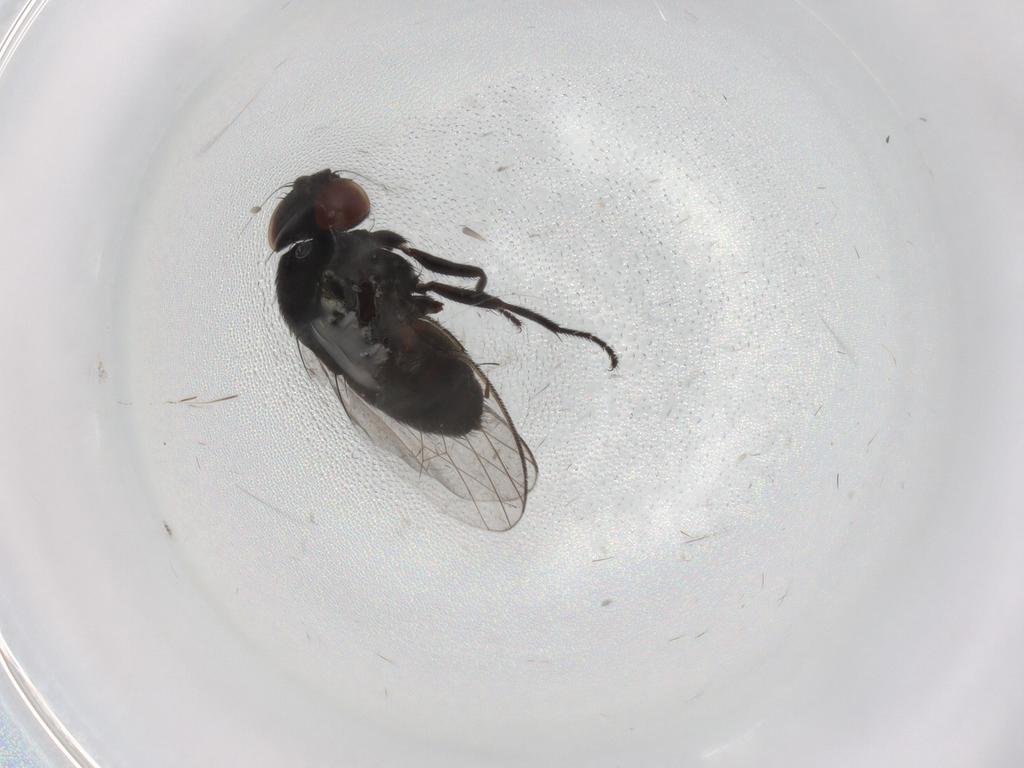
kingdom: Animalia
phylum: Arthropoda
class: Insecta
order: Diptera
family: Milichiidae
